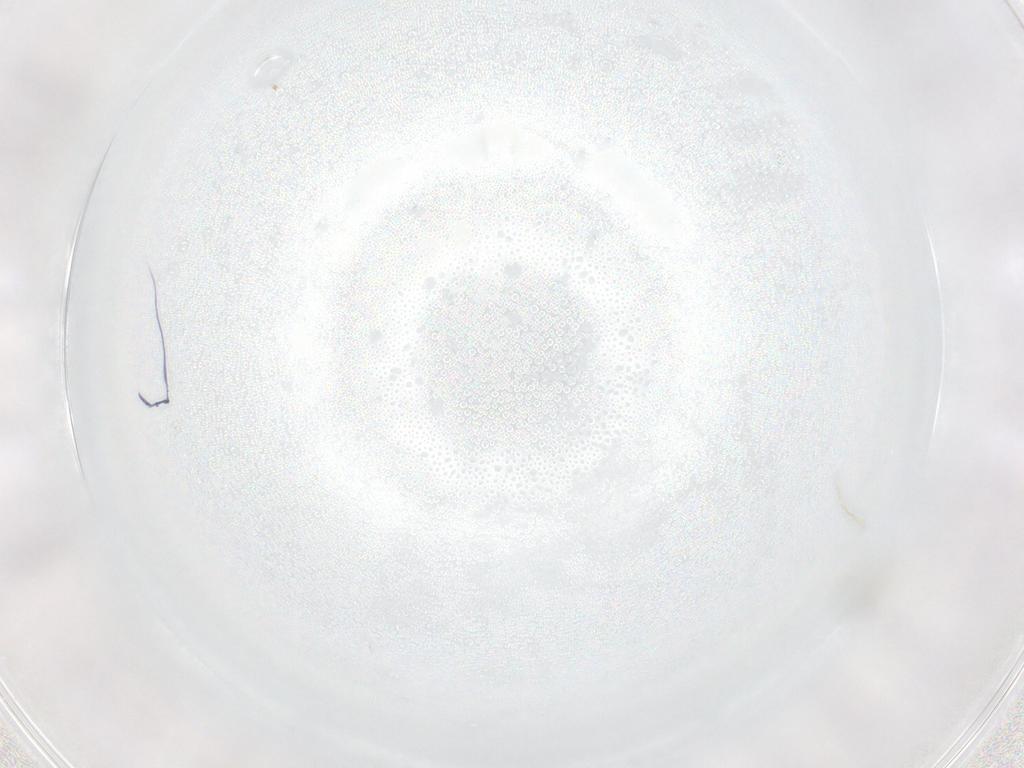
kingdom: Animalia
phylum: Arthropoda
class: Insecta
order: Hymenoptera
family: Mymaridae
